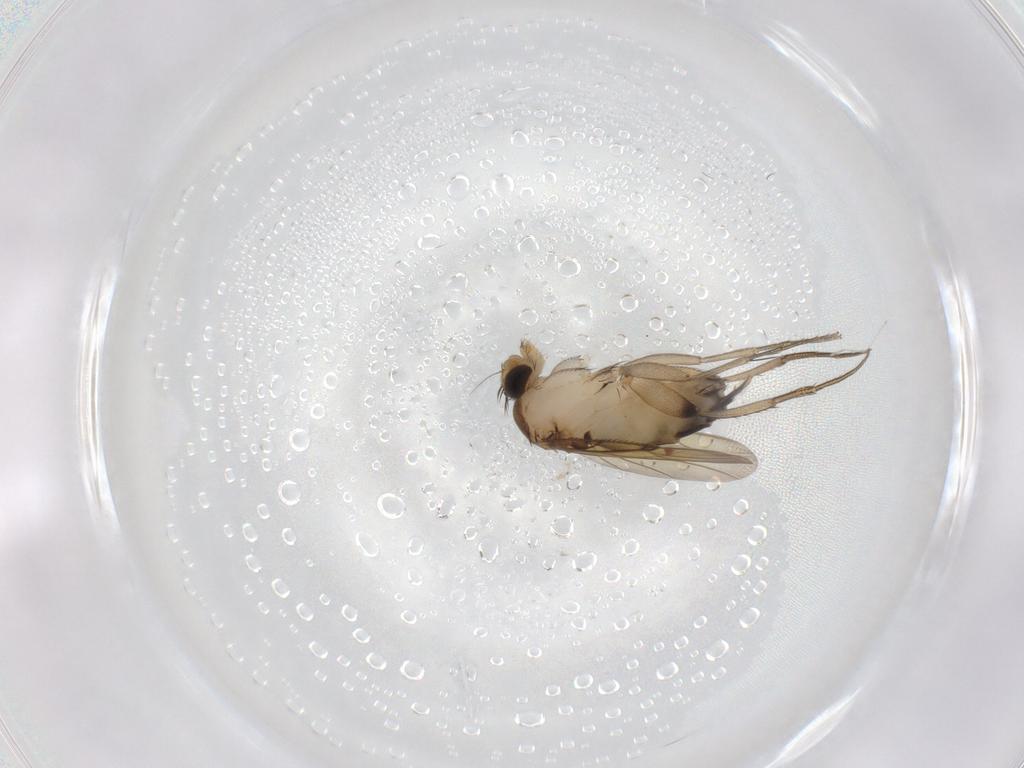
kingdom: Animalia
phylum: Arthropoda
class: Insecta
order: Diptera
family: Phoridae
